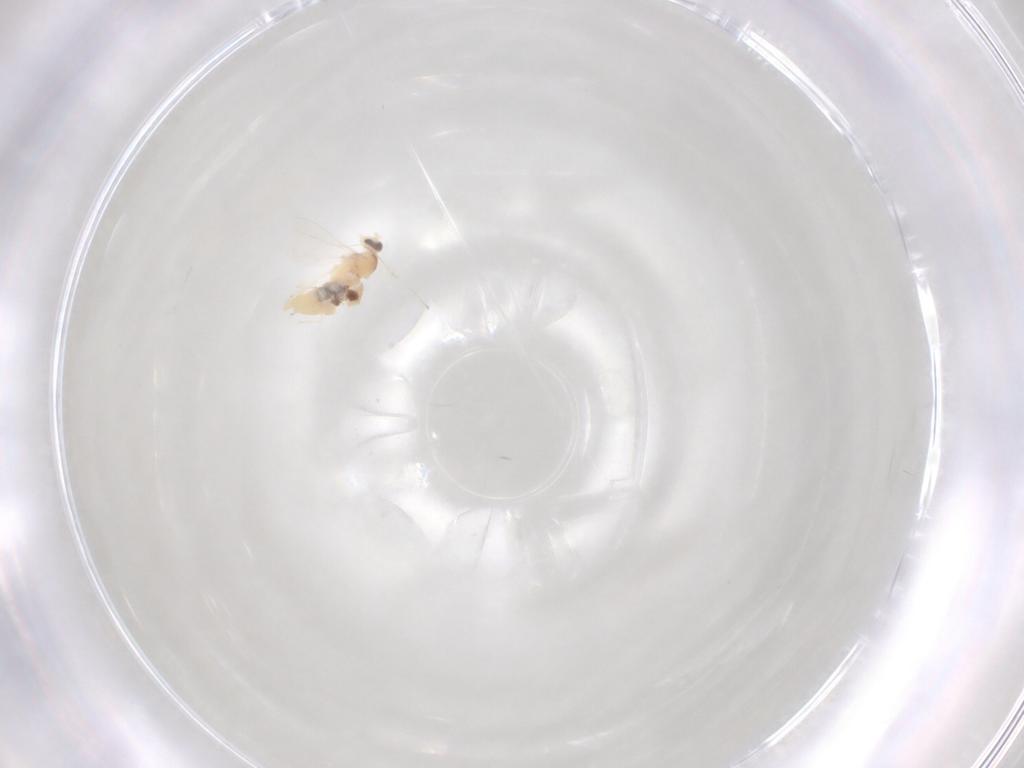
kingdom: Animalia
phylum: Arthropoda
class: Insecta
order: Diptera
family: Cecidomyiidae
